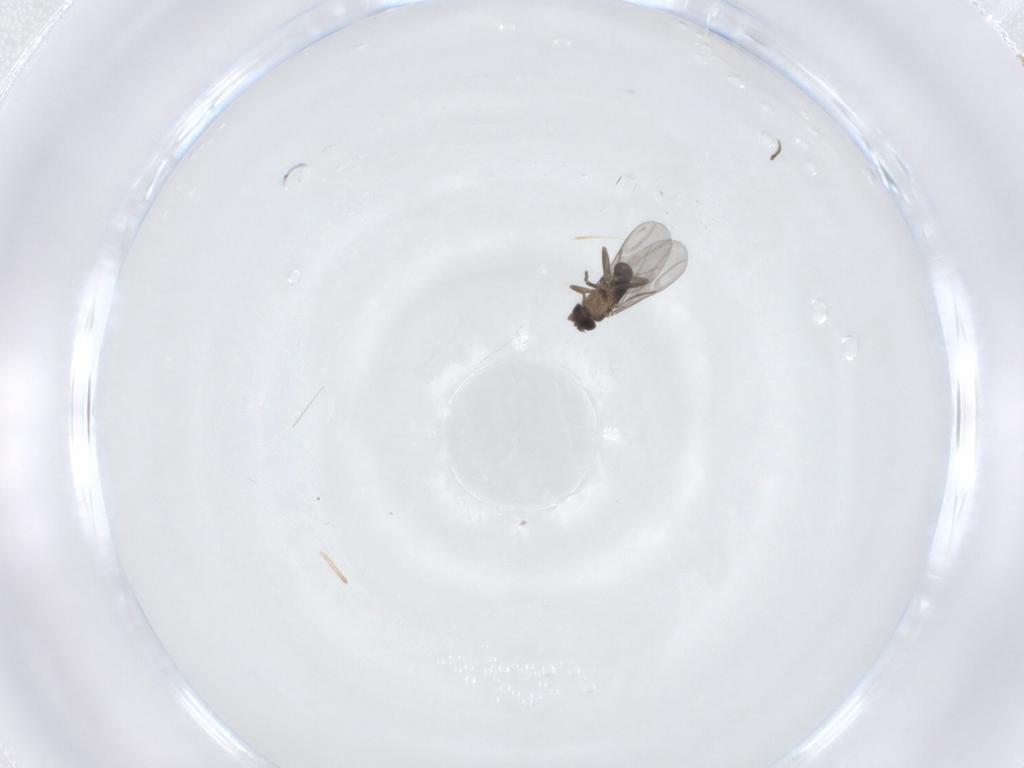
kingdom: Animalia
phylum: Arthropoda
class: Insecta
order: Diptera
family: Phoridae
